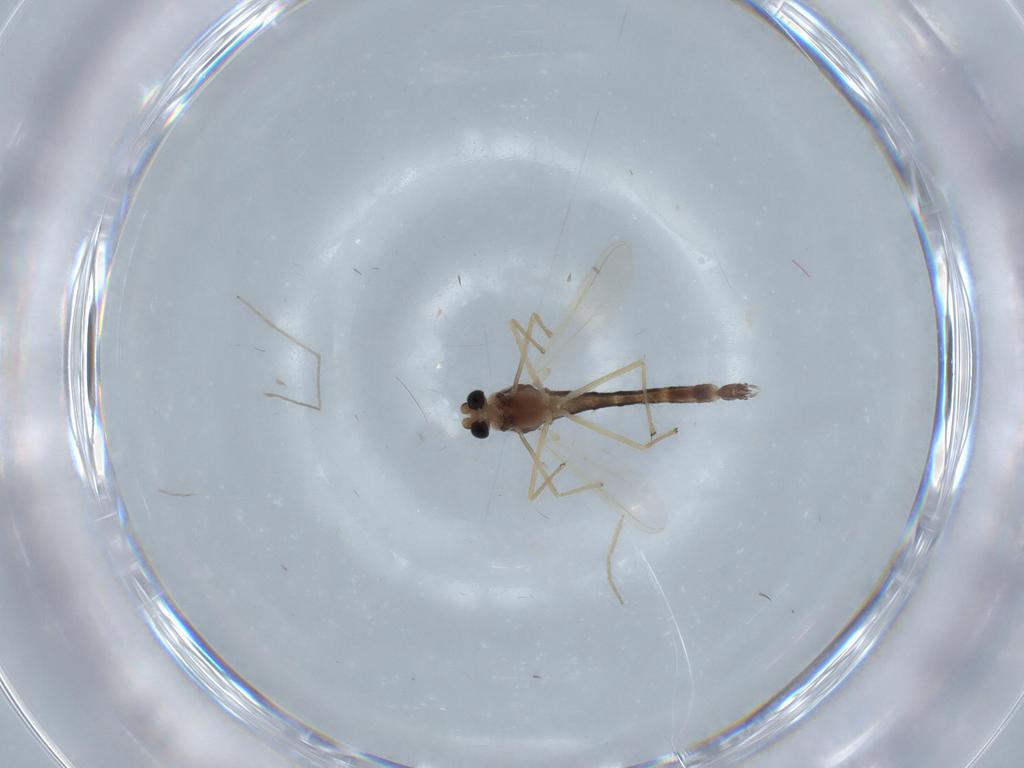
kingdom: Animalia
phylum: Arthropoda
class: Insecta
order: Diptera
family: Chironomidae
